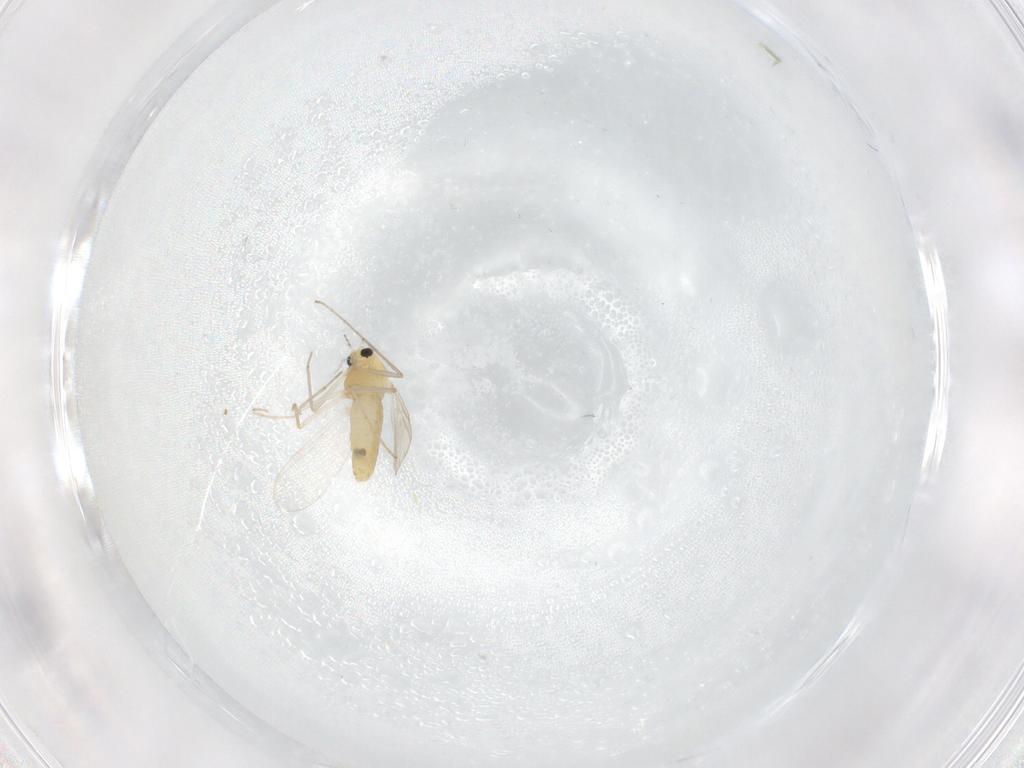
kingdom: Animalia
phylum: Arthropoda
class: Insecta
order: Diptera
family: Chironomidae
